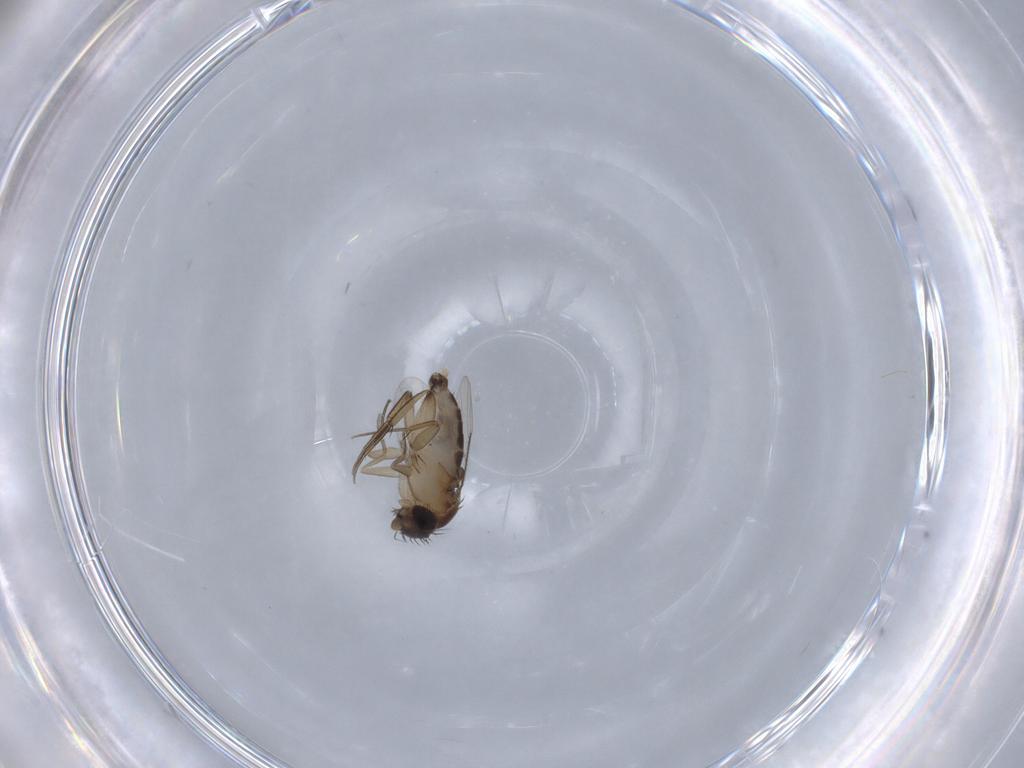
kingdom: Animalia
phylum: Arthropoda
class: Insecta
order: Diptera
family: Phoridae
